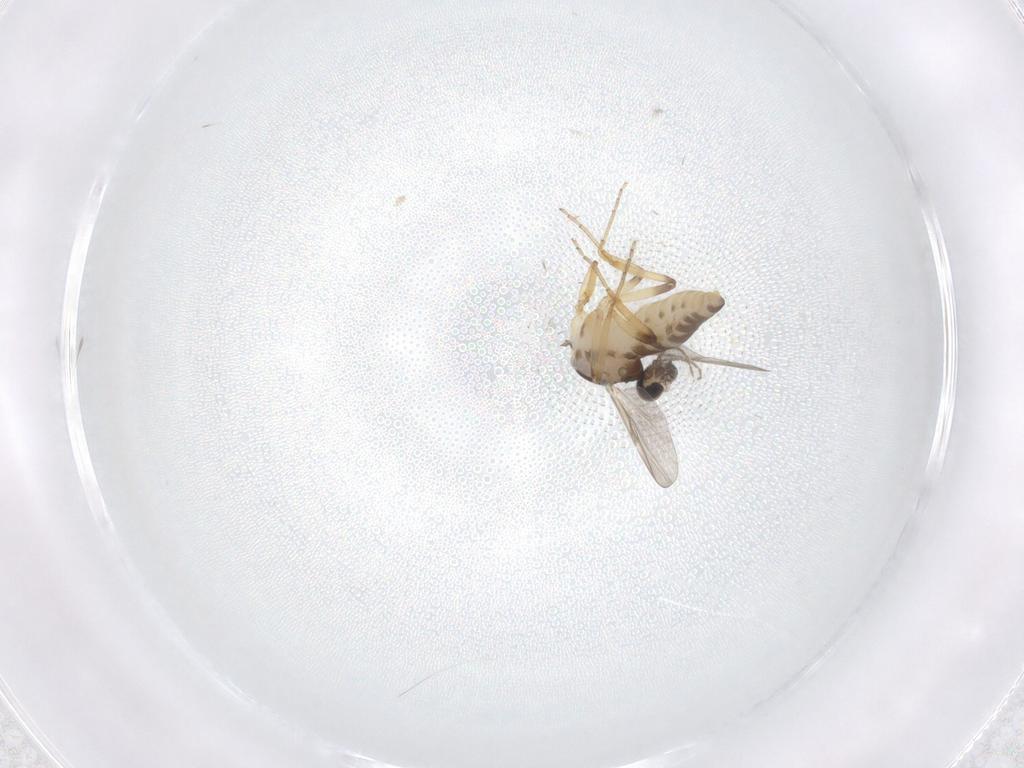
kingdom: Animalia
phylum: Arthropoda
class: Insecta
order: Diptera
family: Ceratopogonidae
